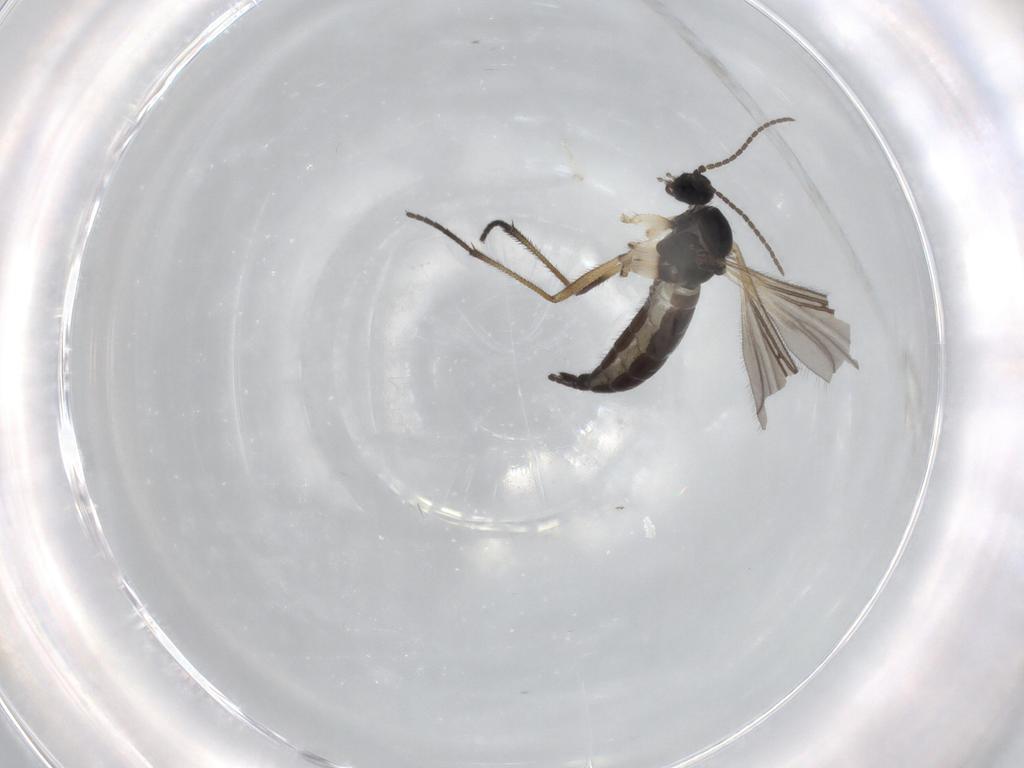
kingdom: Animalia
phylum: Arthropoda
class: Insecta
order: Diptera
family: Sciaridae
